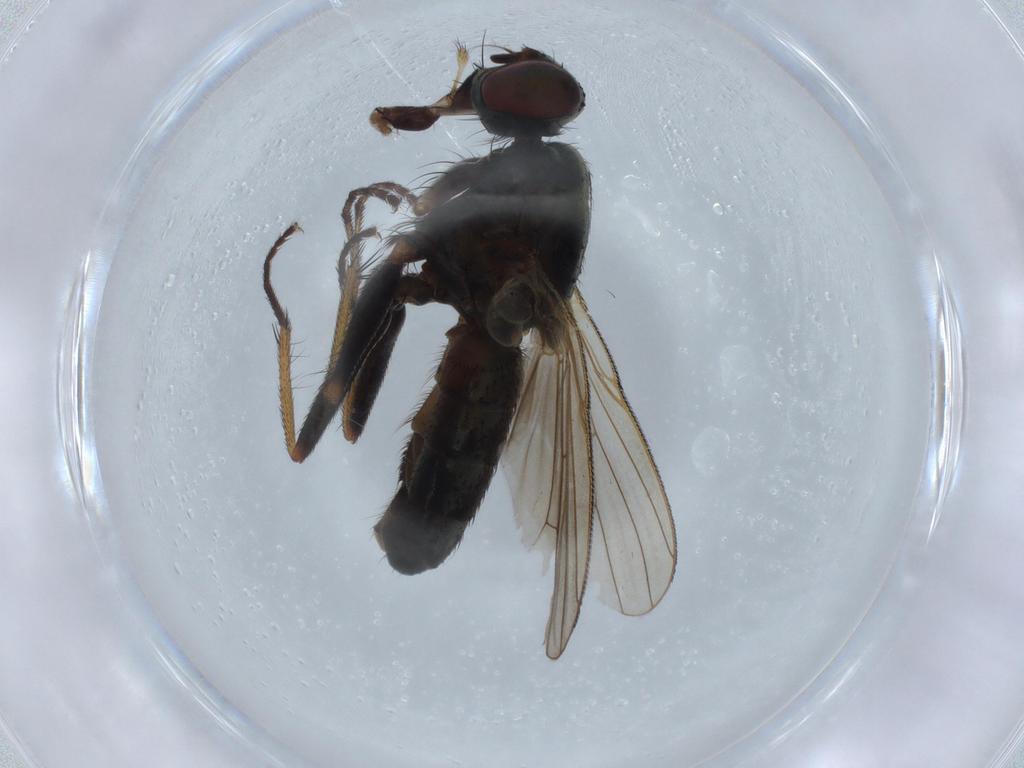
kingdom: Animalia
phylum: Arthropoda
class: Insecta
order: Diptera
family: Muscidae
